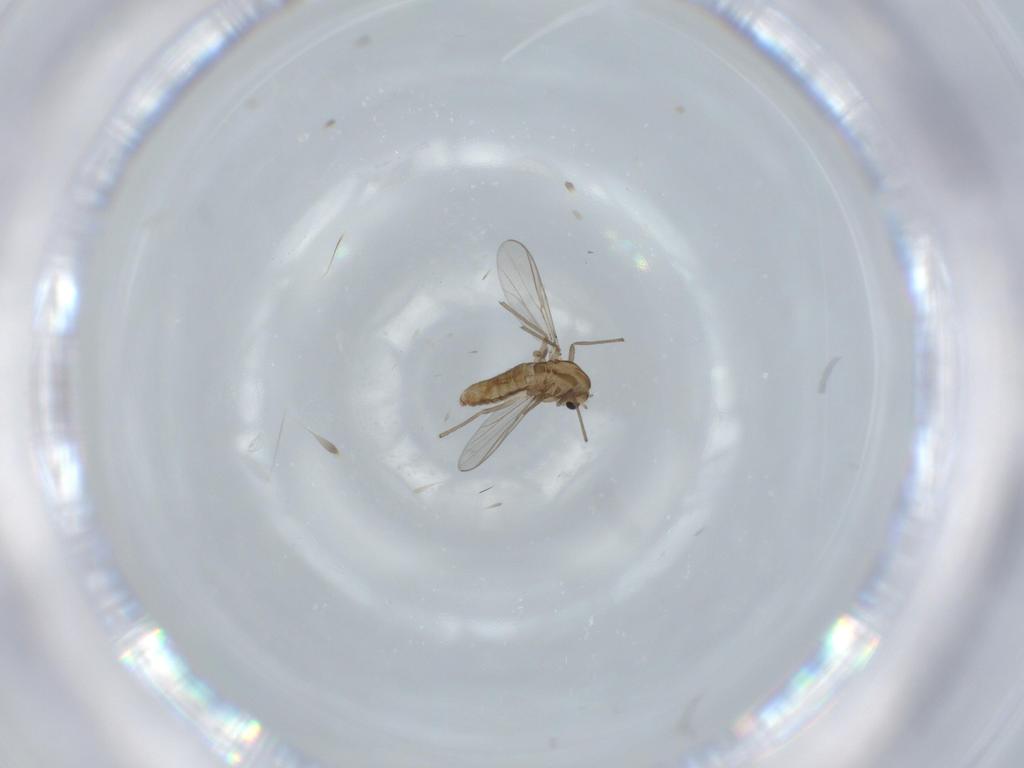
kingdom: Animalia
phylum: Arthropoda
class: Insecta
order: Diptera
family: Chironomidae
